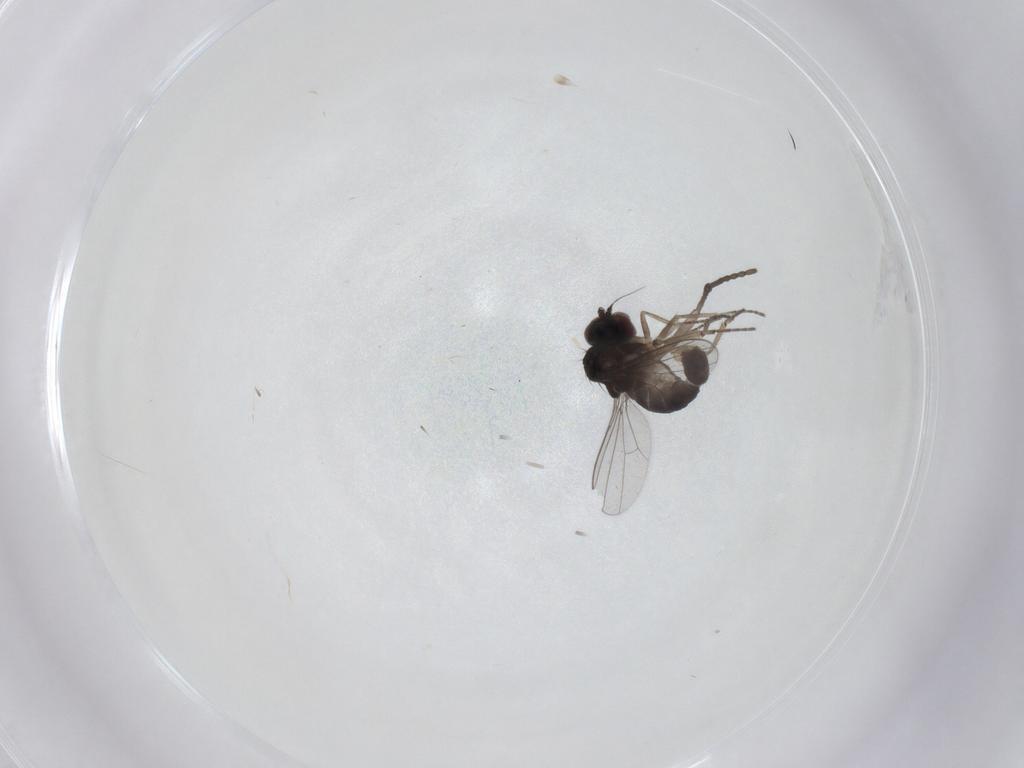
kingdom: Animalia
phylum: Arthropoda
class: Insecta
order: Diptera
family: Dolichopodidae
